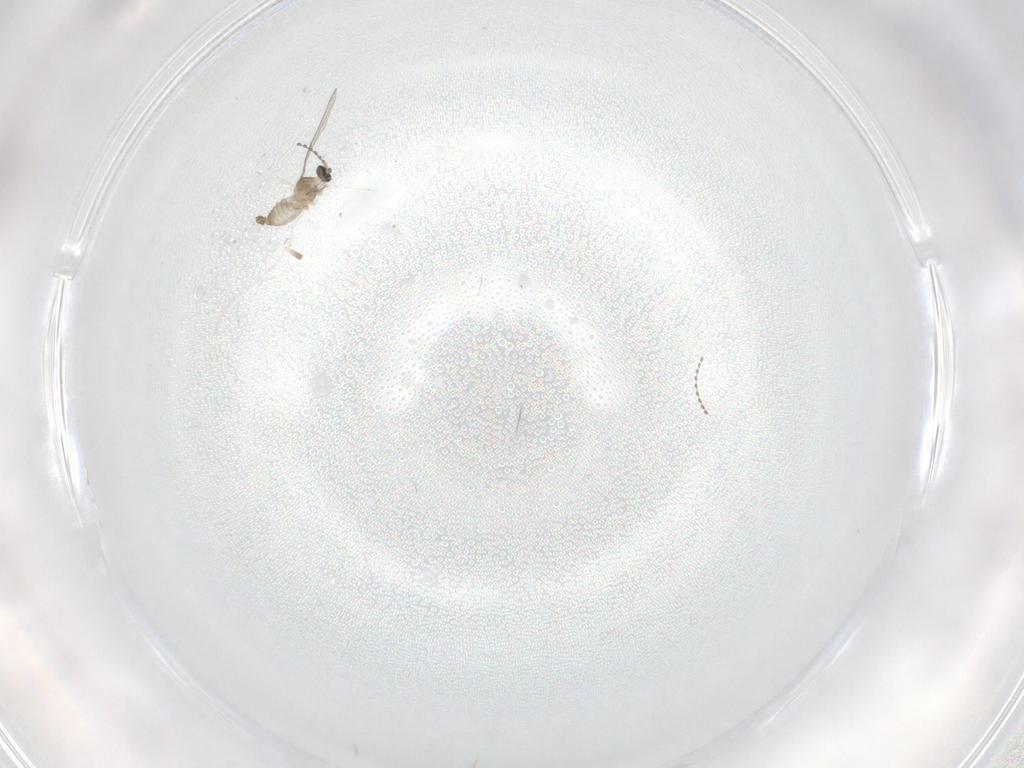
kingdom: Animalia
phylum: Arthropoda
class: Insecta
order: Diptera
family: Cecidomyiidae
